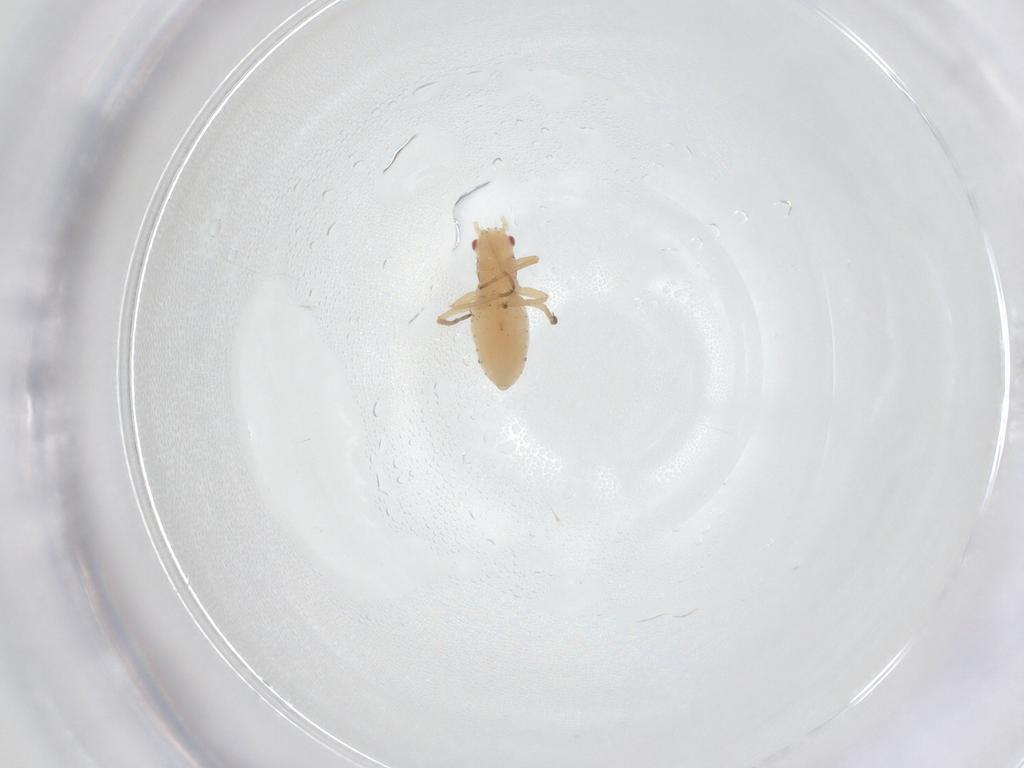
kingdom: Animalia
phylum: Arthropoda
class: Insecta
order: Hemiptera
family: Aphididae
